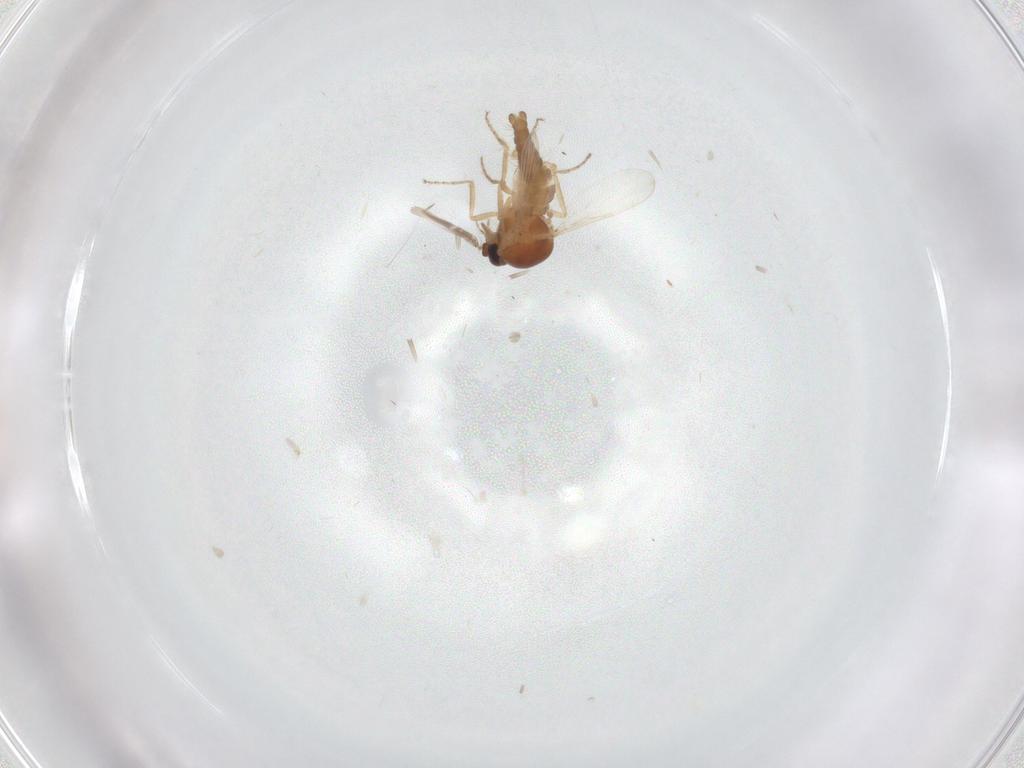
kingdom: Animalia
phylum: Arthropoda
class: Insecta
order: Diptera
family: Ceratopogonidae
